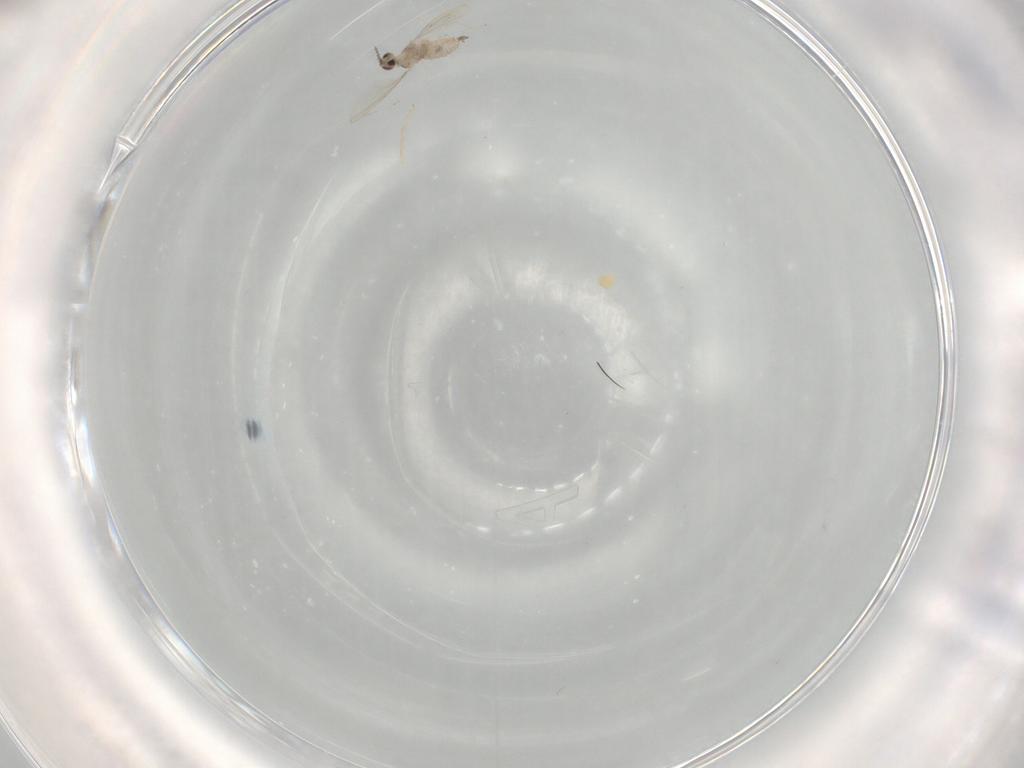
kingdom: Animalia
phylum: Arthropoda
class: Insecta
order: Diptera
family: Cecidomyiidae
